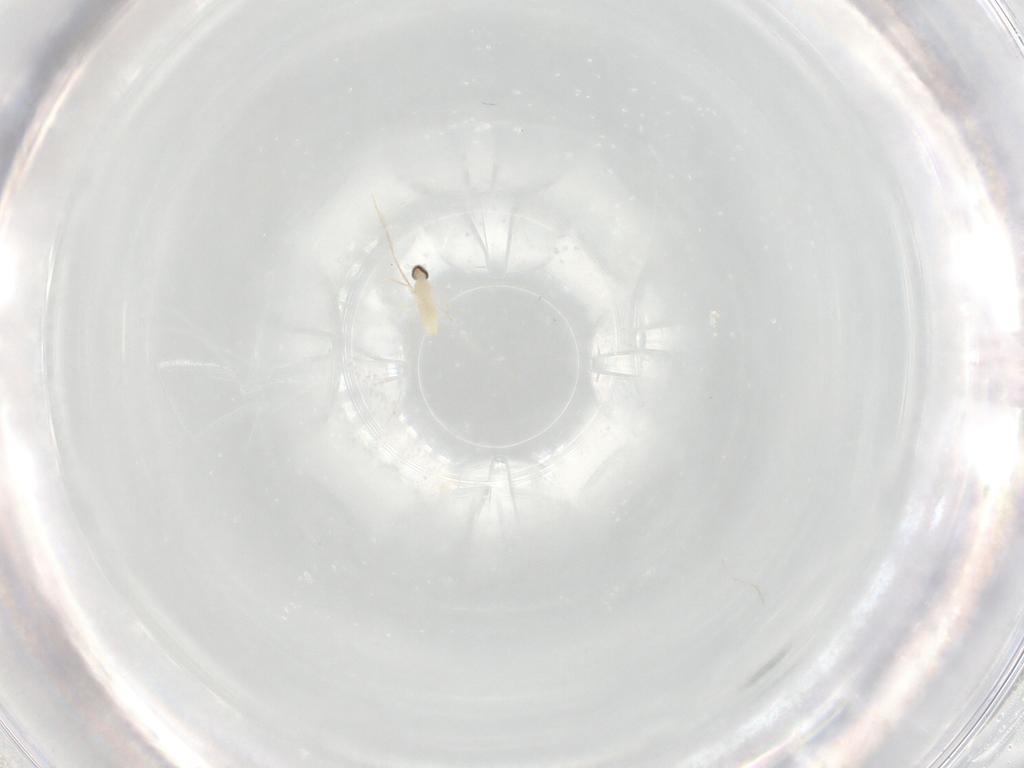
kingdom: Animalia
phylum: Arthropoda
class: Insecta
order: Diptera
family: Cecidomyiidae
